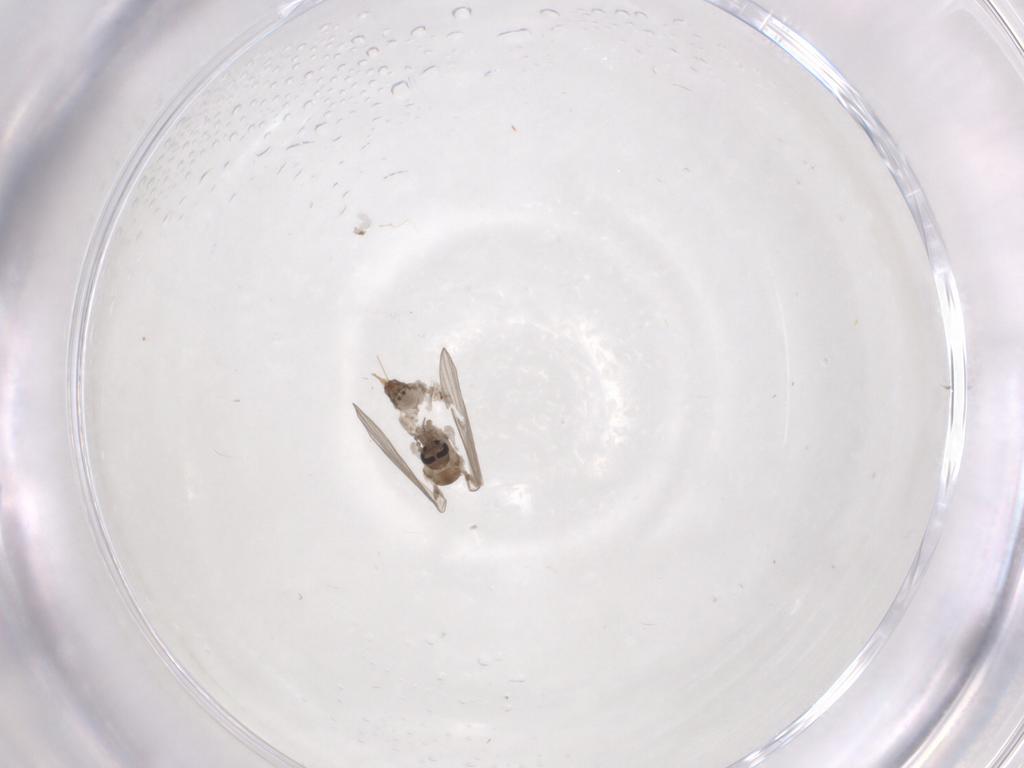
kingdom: Animalia
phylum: Arthropoda
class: Insecta
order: Diptera
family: Psychodidae
